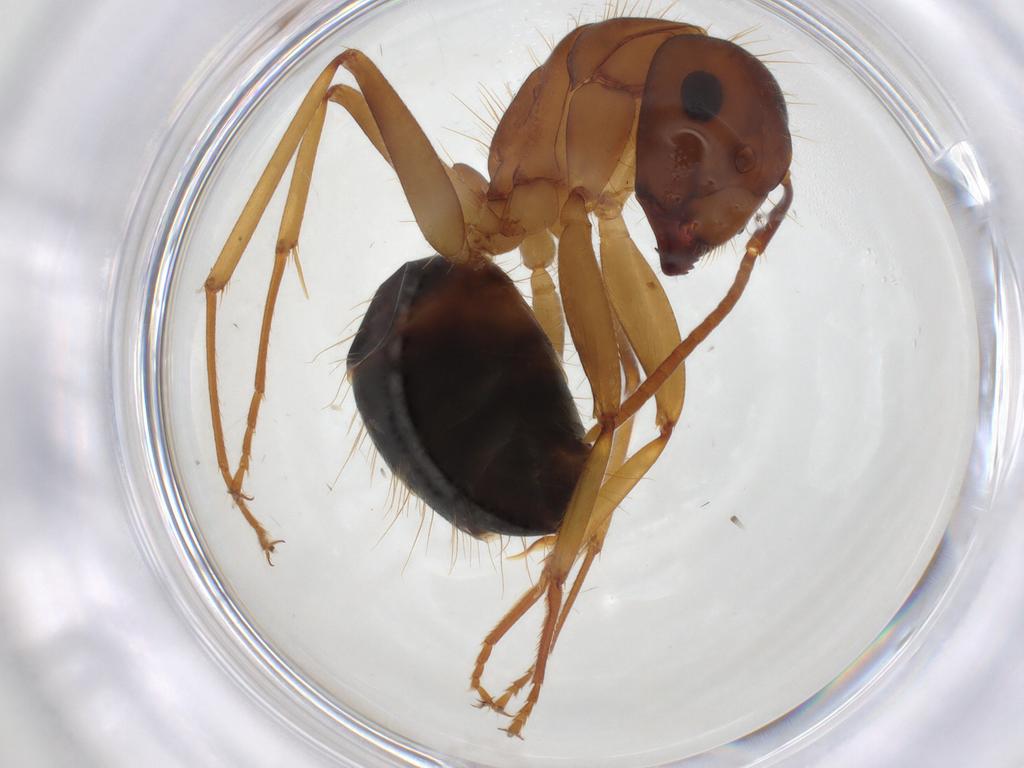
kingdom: Animalia
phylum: Arthropoda
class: Insecta
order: Hymenoptera
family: Formicidae
